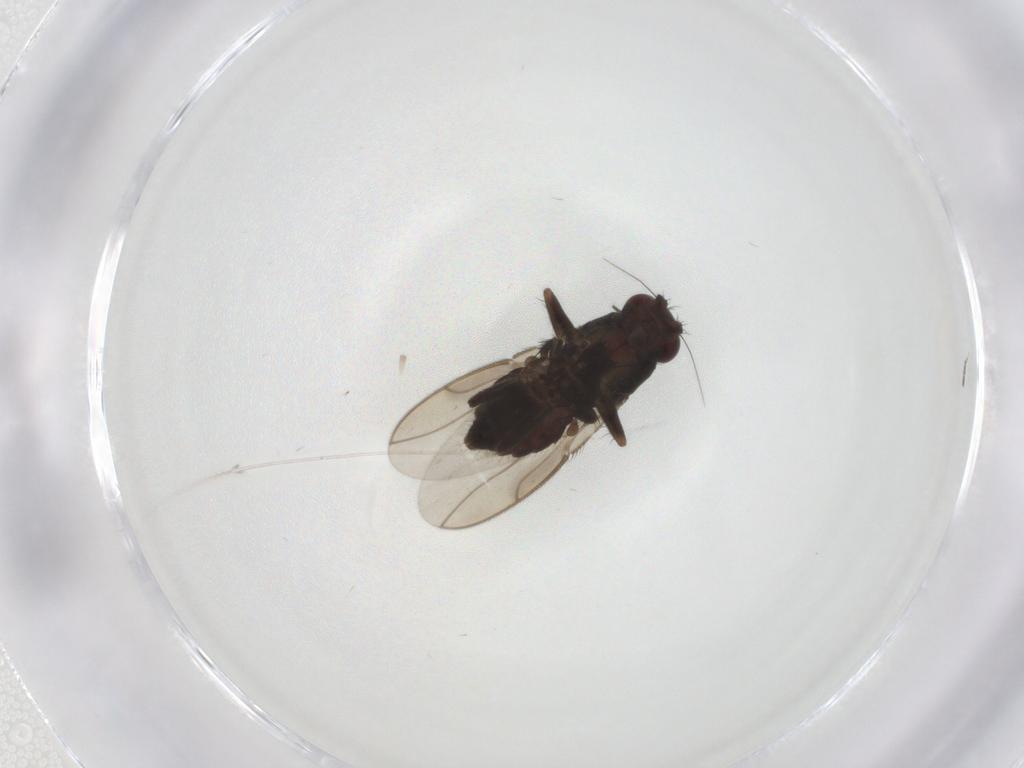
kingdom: Animalia
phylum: Arthropoda
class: Insecta
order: Diptera
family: Sphaeroceridae
